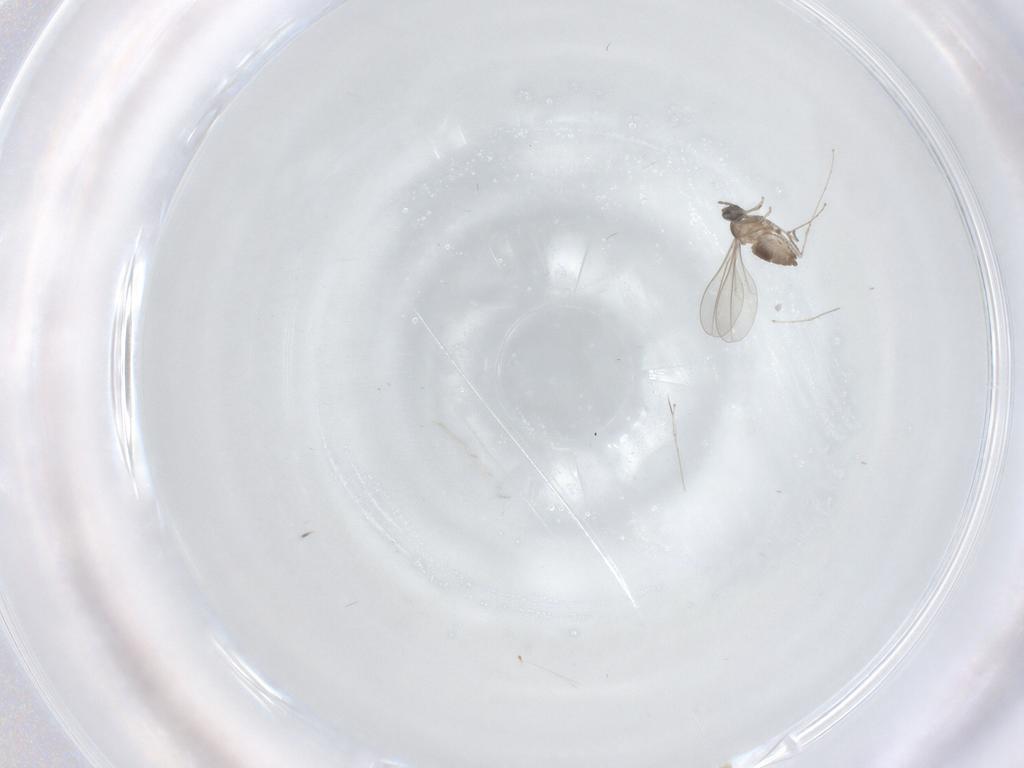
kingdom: Animalia
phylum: Arthropoda
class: Insecta
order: Diptera
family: Cecidomyiidae
